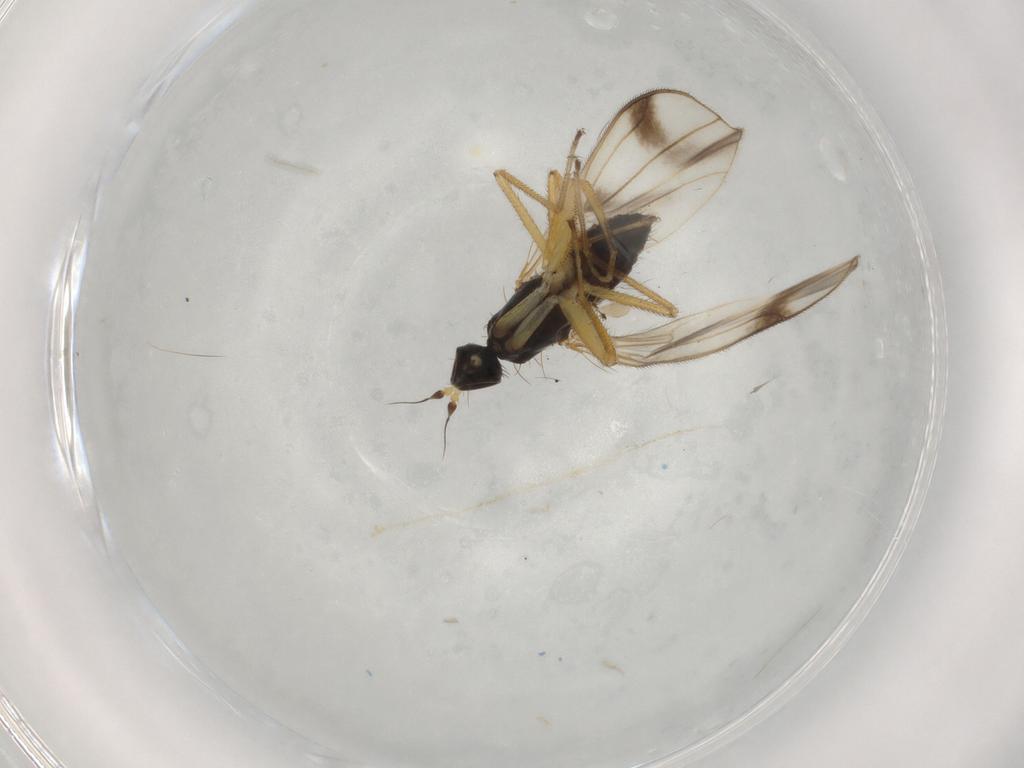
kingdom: Animalia
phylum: Arthropoda
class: Insecta
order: Diptera
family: Empididae
